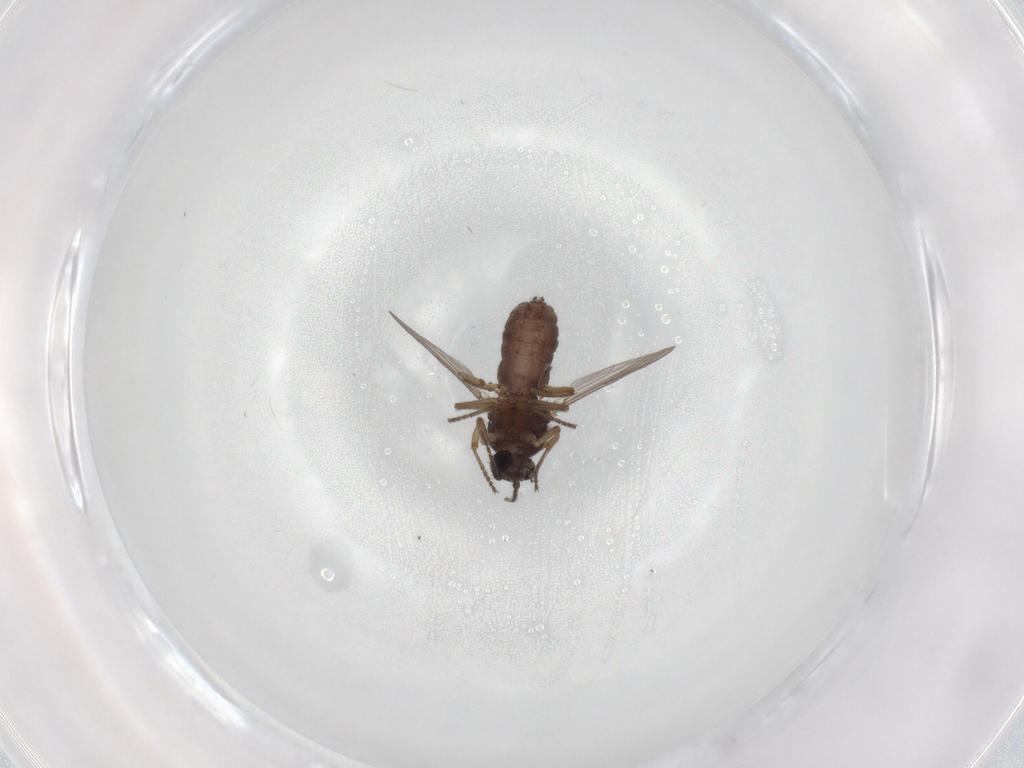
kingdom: Animalia
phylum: Arthropoda
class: Insecta
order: Diptera
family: Ceratopogonidae
